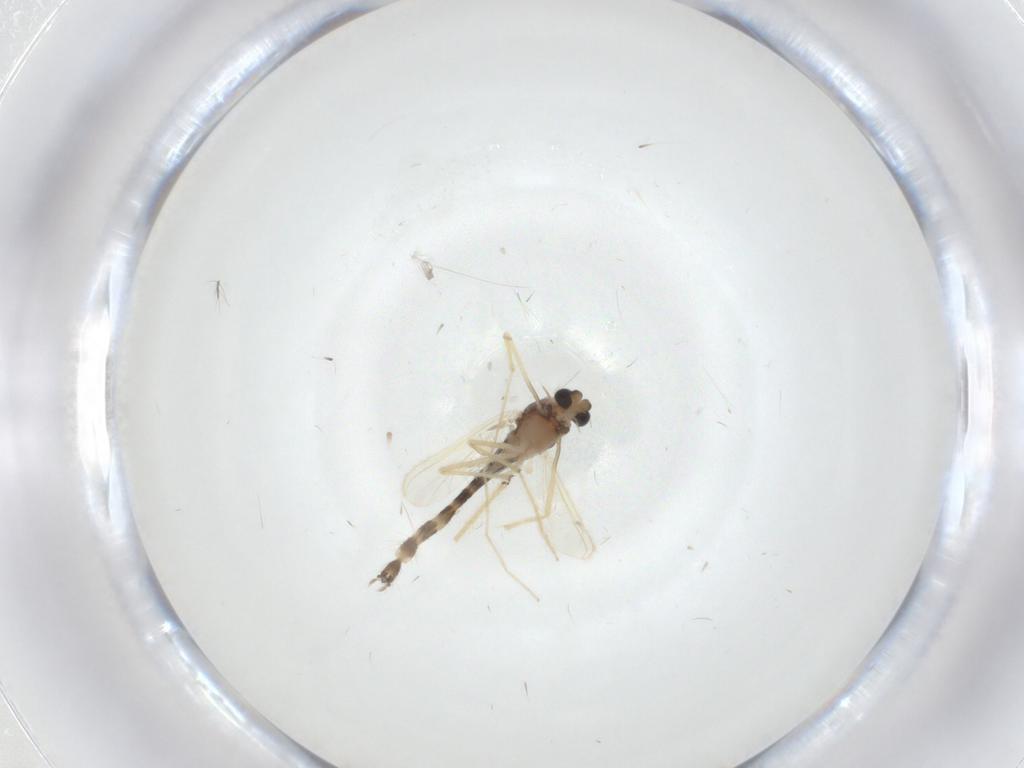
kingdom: Animalia
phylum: Arthropoda
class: Insecta
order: Diptera
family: Chironomidae
